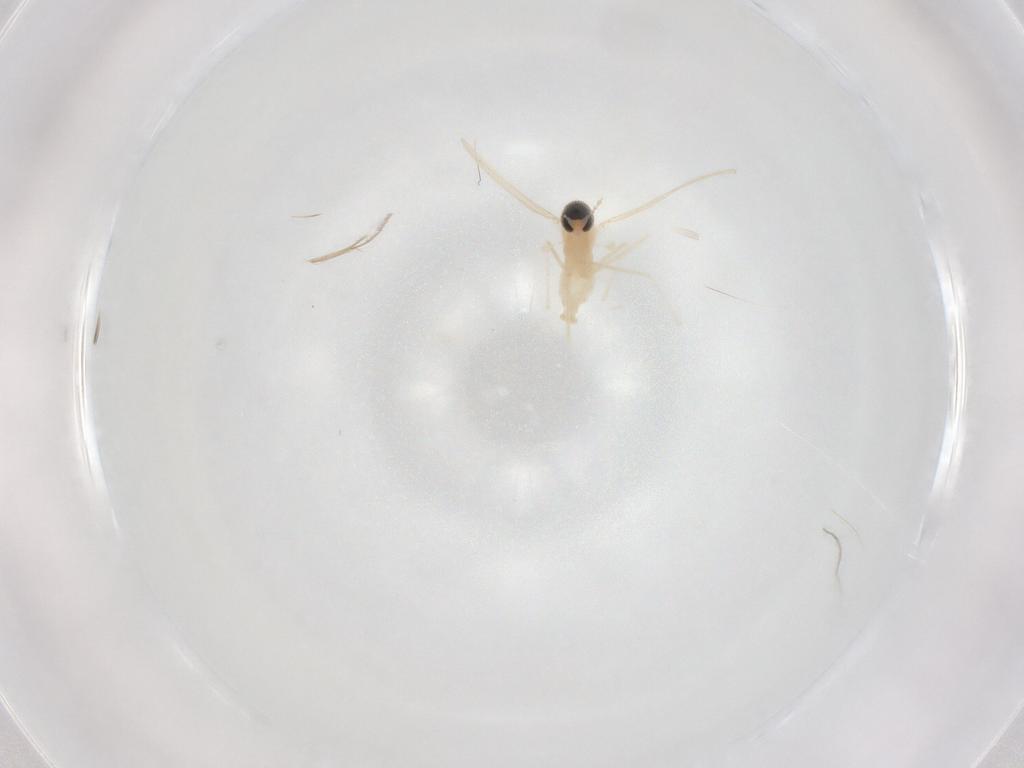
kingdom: Animalia
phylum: Arthropoda
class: Insecta
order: Diptera
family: Cecidomyiidae
